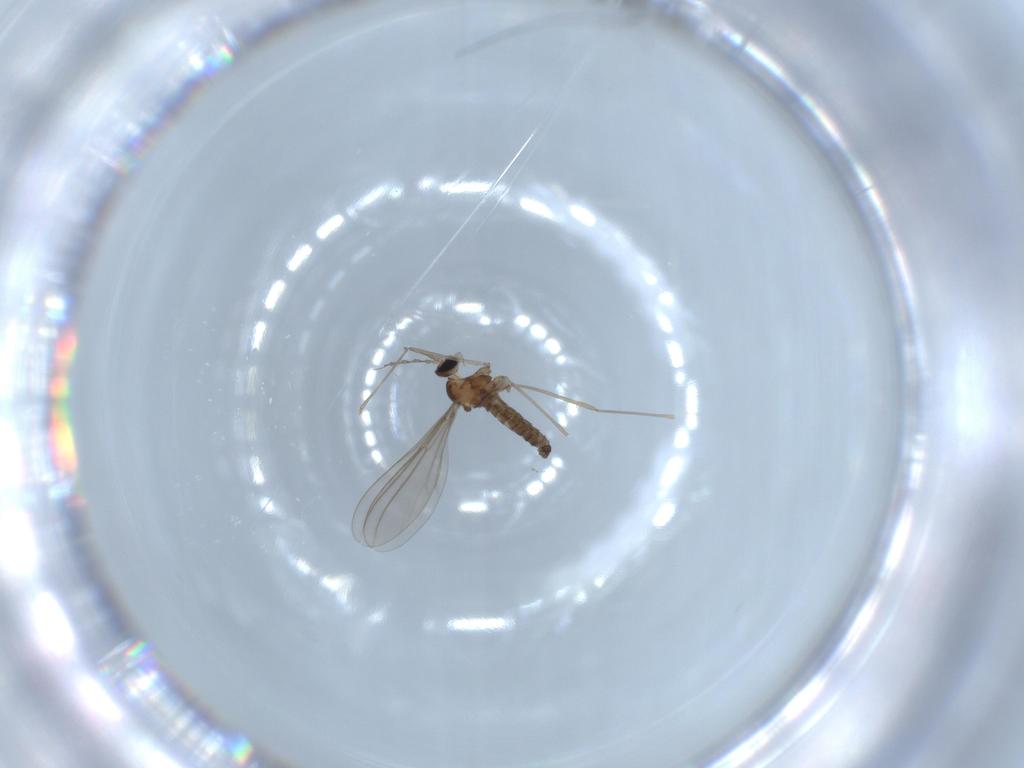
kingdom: Animalia
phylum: Arthropoda
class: Insecta
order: Diptera
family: Cecidomyiidae
